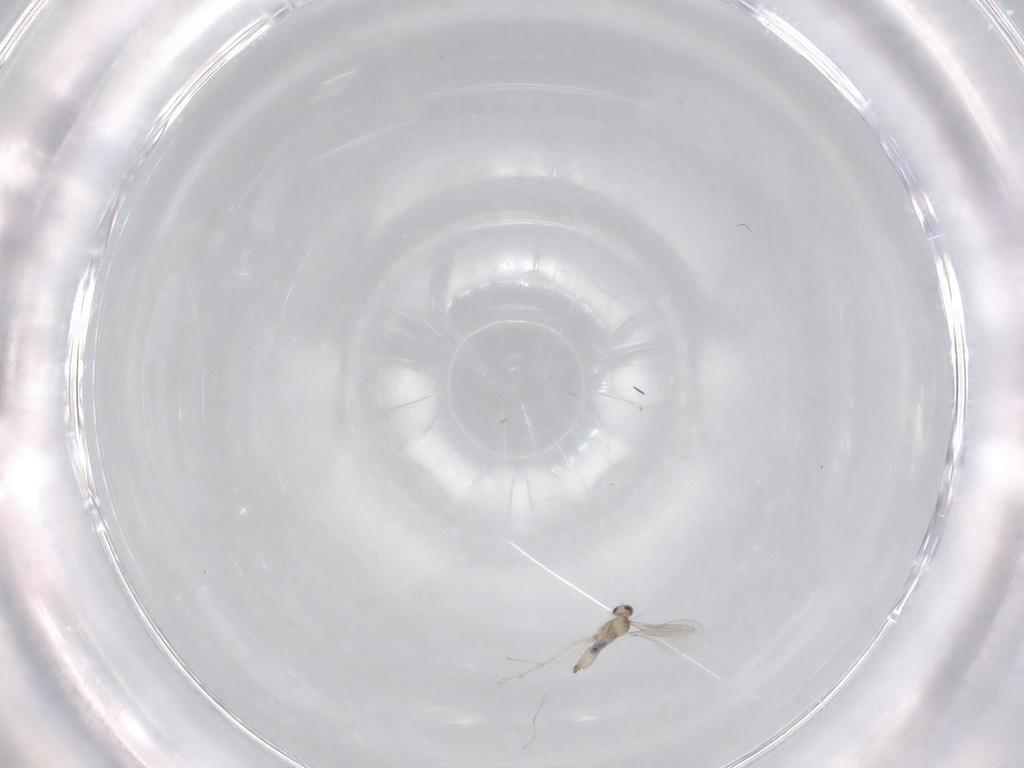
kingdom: Animalia
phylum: Arthropoda
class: Insecta
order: Diptera
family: Cecidomyiidae
